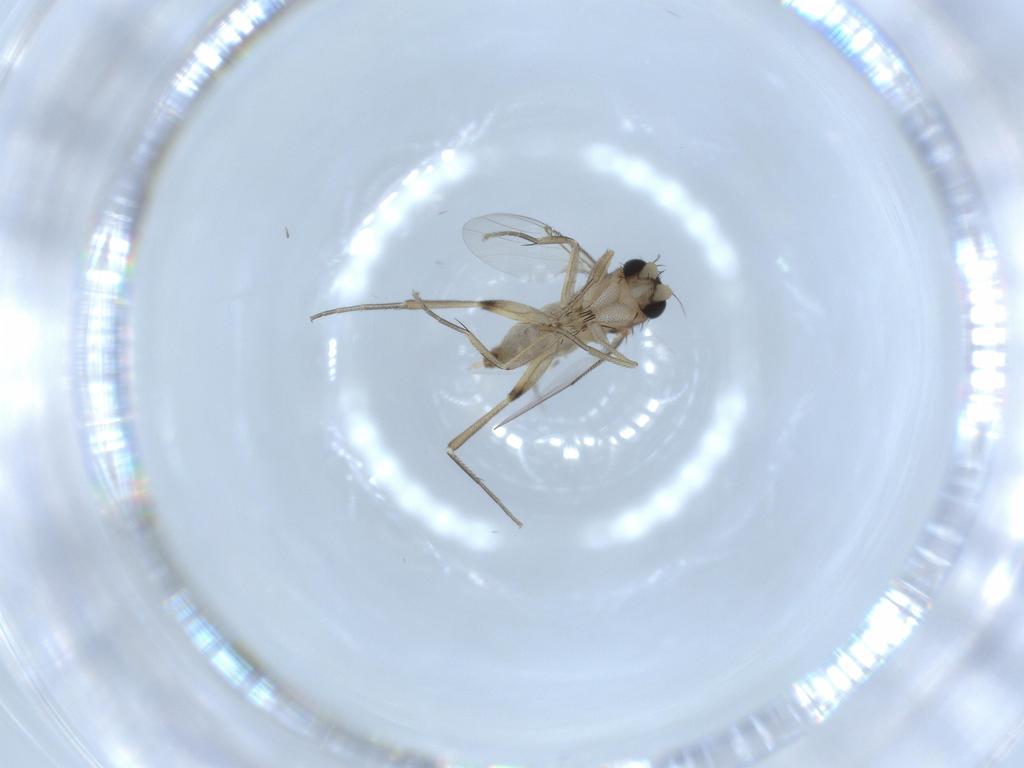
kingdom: Animalia
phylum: Arthropoda
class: Insecta
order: Diptera
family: Phoridae
